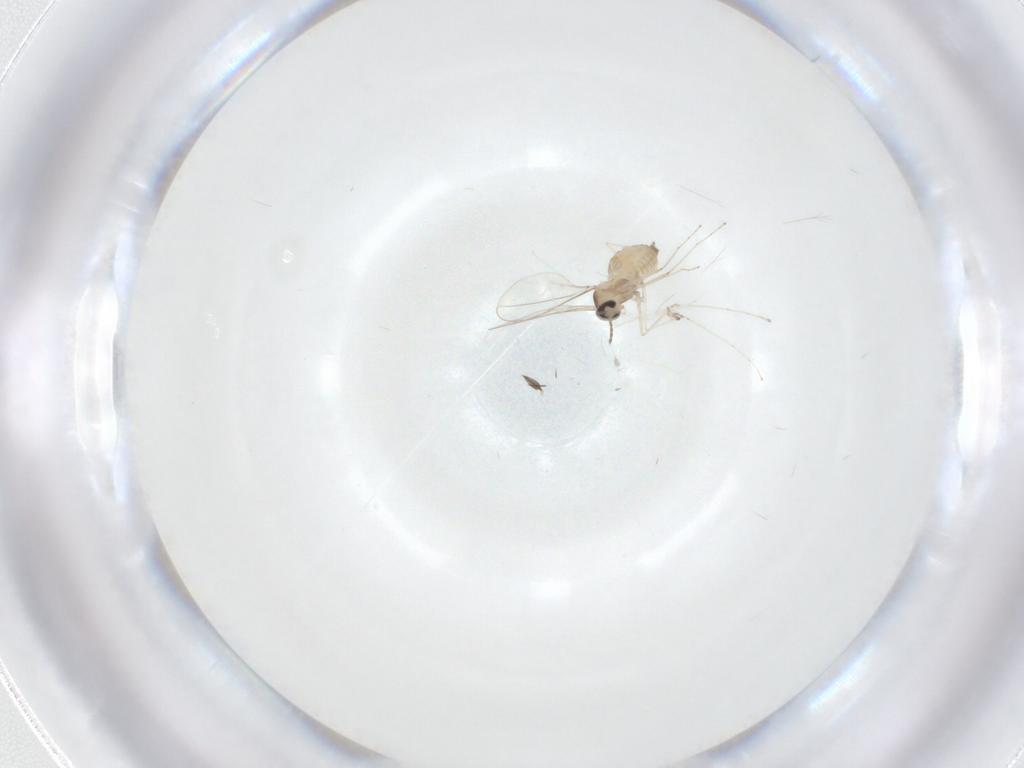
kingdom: Animalia
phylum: Arthropoda
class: Insecta
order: Diptera
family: Cecidomyiidae
